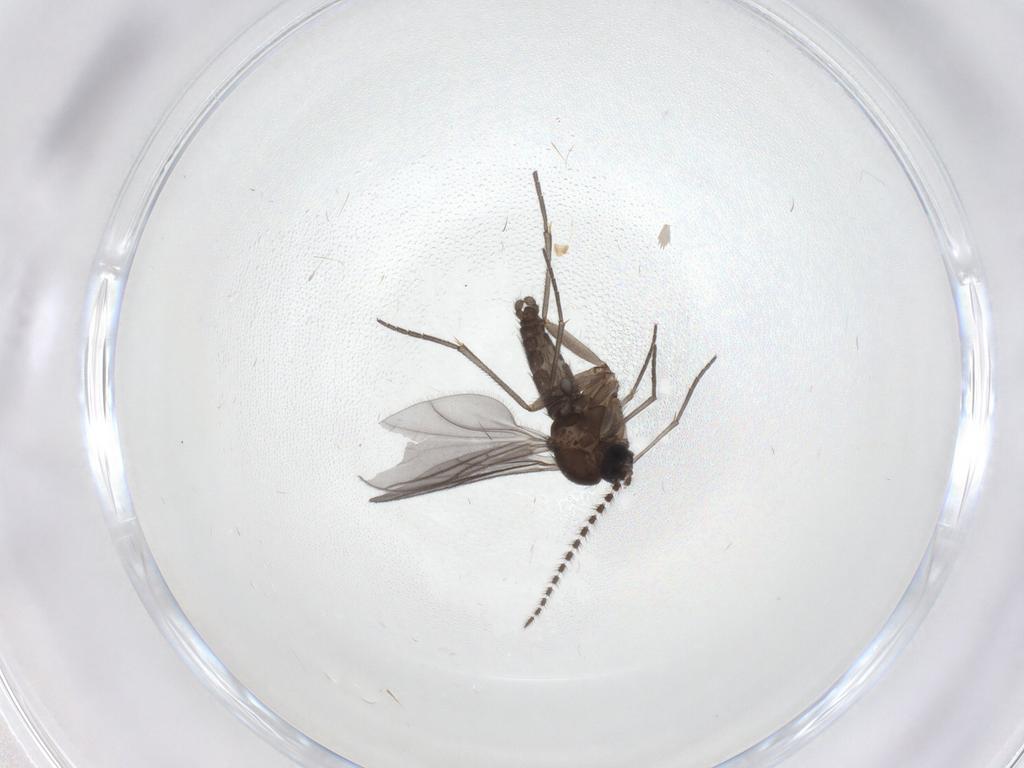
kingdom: Animalia
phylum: Arthropoda
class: Insecta
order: Diptera
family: Sciaridae
